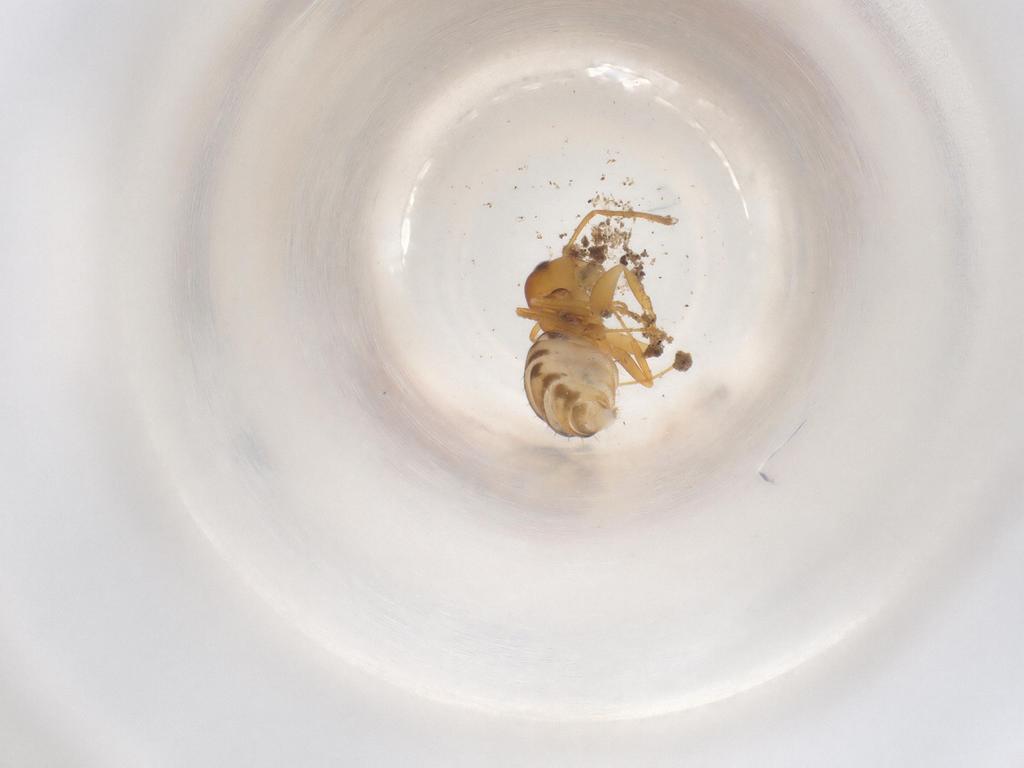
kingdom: Animalia
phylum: Arthropoda
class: Insecta
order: Hymenoptera
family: Formicidae
